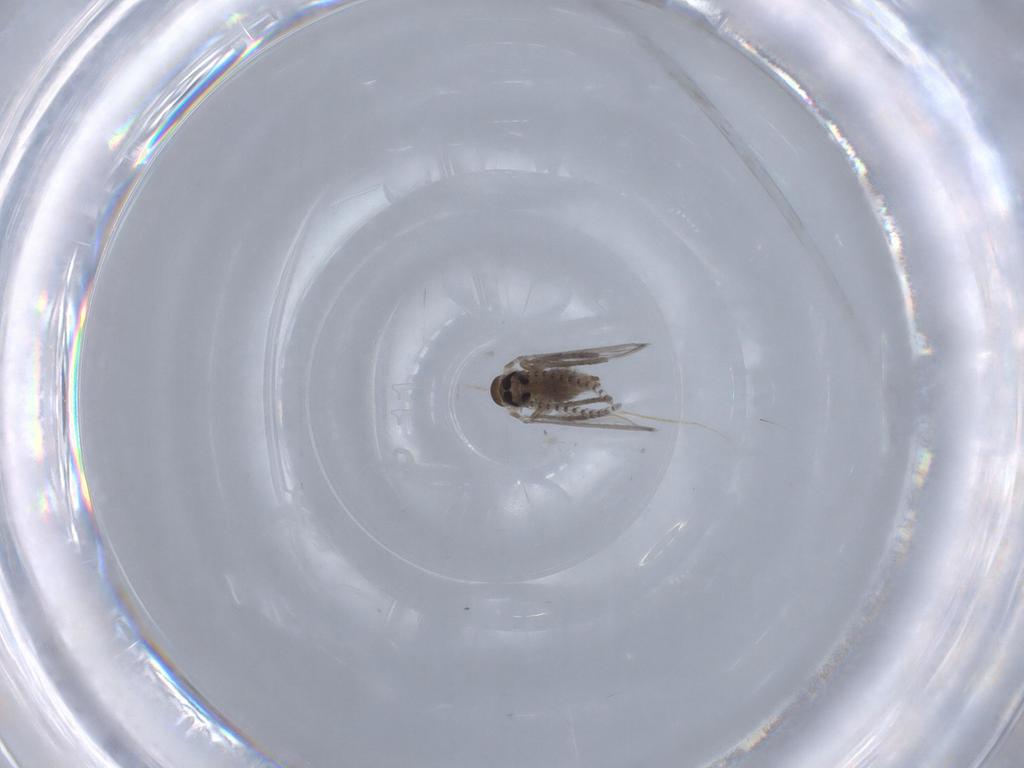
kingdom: Animalia
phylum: Arthropoda
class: Insecta
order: Diptera
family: Psychodidae
